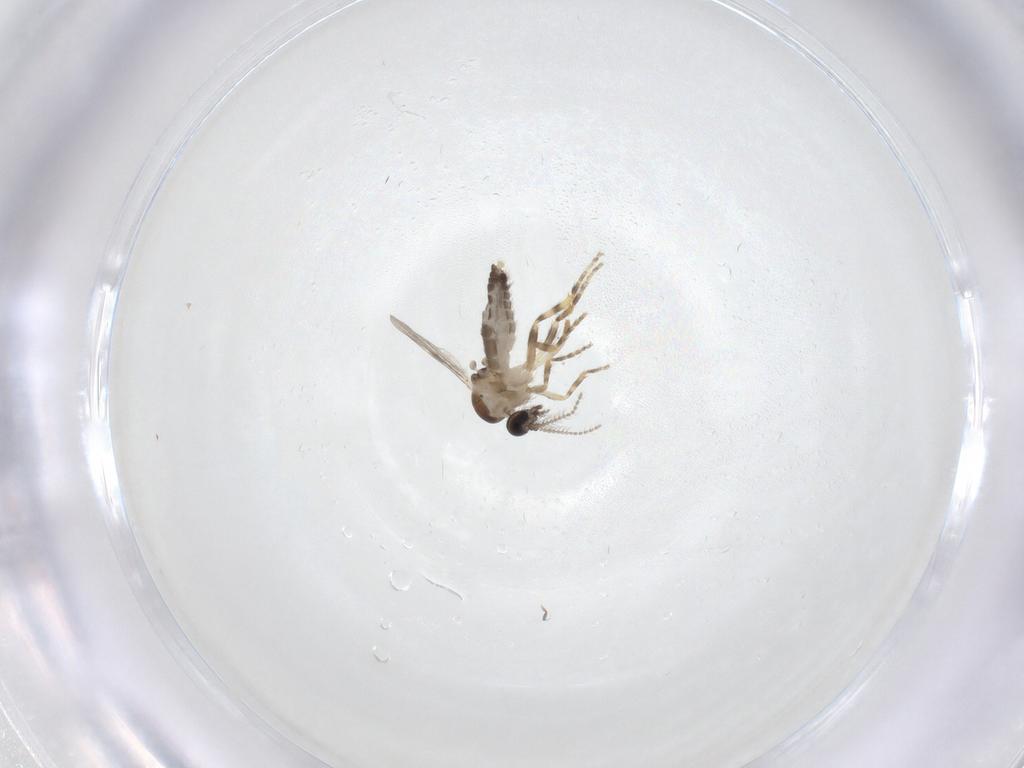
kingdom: Animalia
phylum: Arthropoda
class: Insecta
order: Diptera
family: Ceratopogonidae
